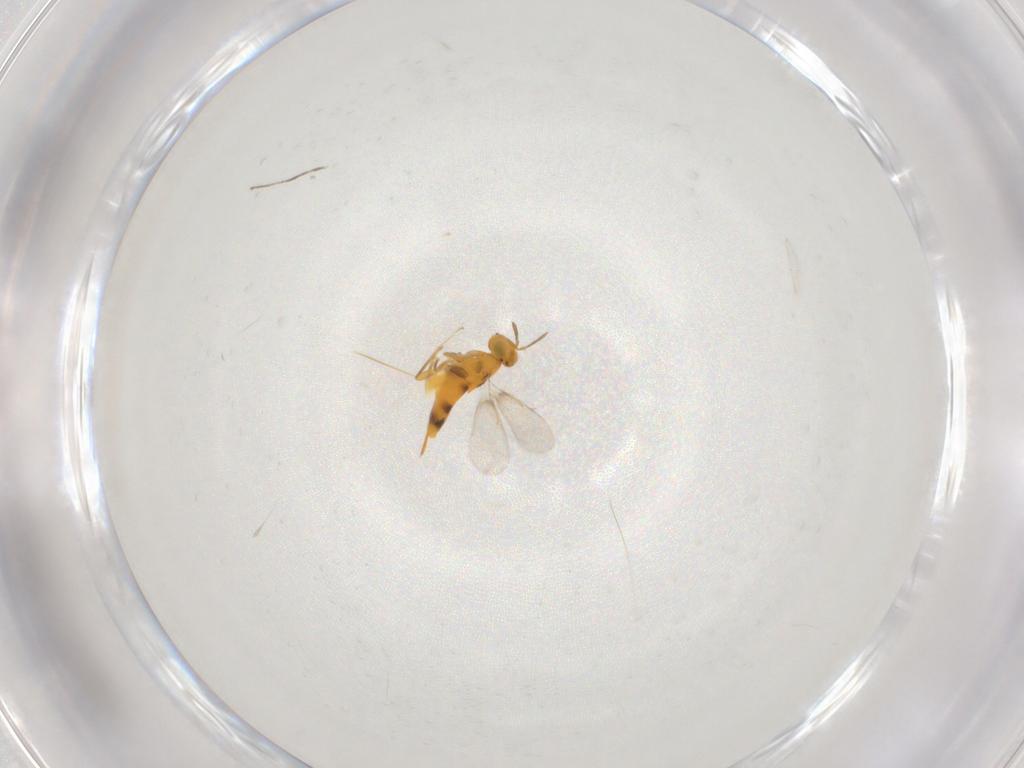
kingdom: Animalia
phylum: Arthropoda
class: Insecta
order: Hymenoptera
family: Aphelinidae
